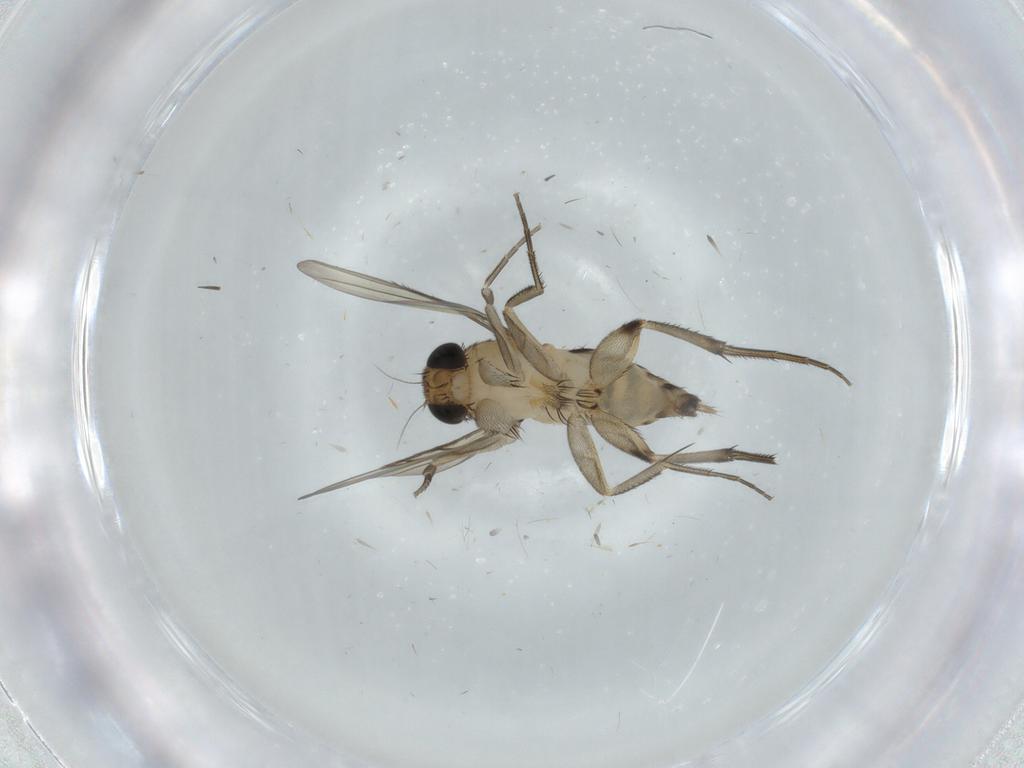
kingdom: Animalia
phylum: Arthropoda
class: Insecta
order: Diptera
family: Phoridae
